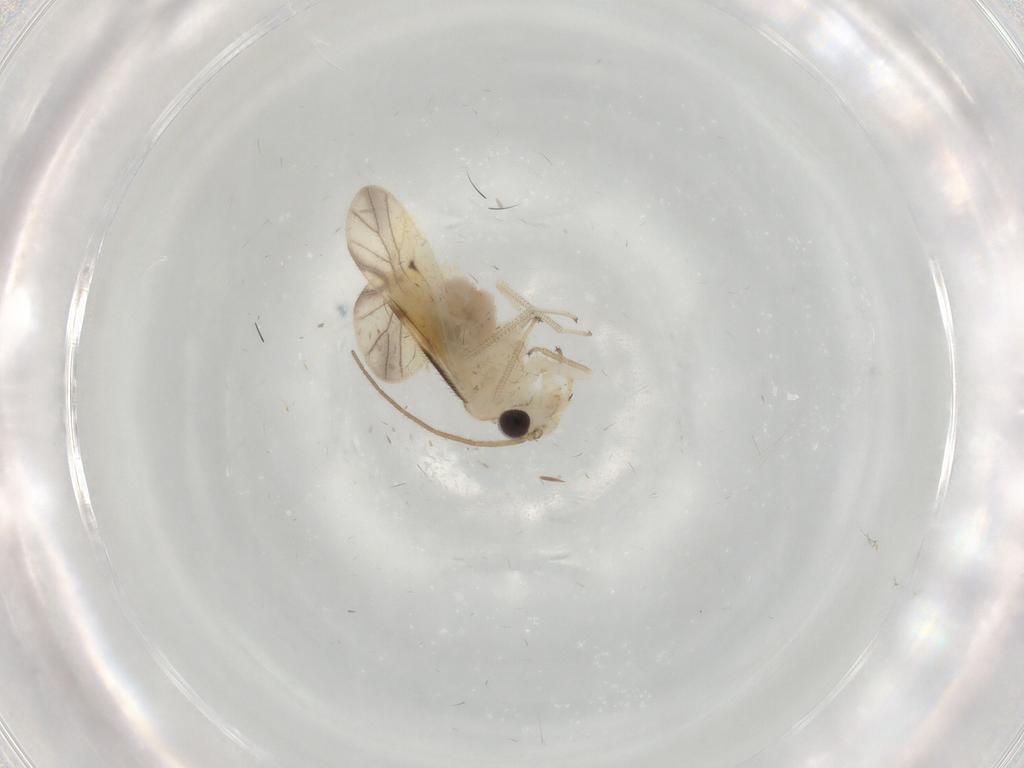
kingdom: Animalia
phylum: Arthropoda
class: Insecta
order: Psocodea
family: Caeciliusidae
